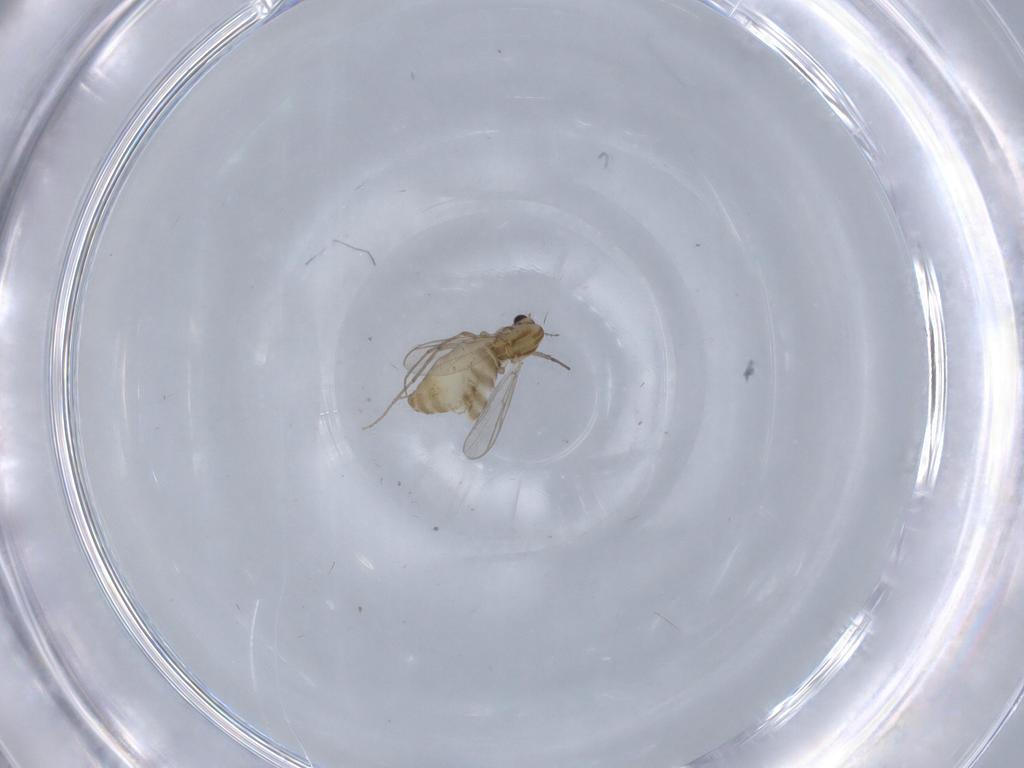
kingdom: Animalia
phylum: Arthropoda
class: Insecta
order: Diptera
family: Chironomidae
